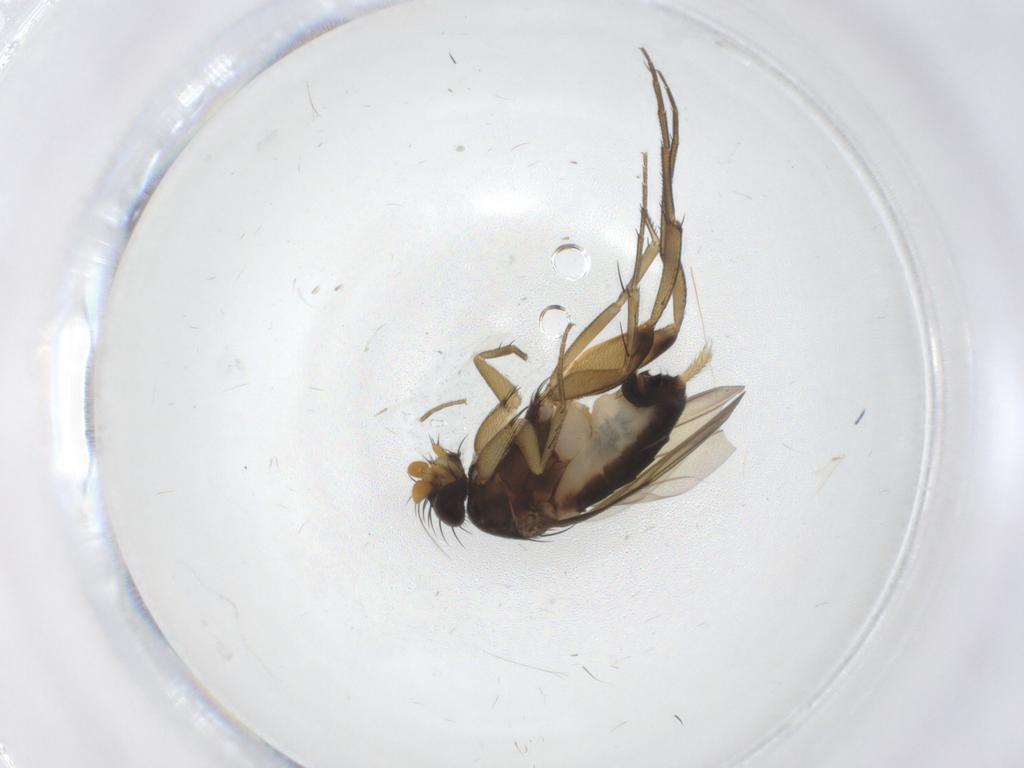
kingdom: Animalia
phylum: Arthropoda
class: Insecta
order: Diptera
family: Phoridae
